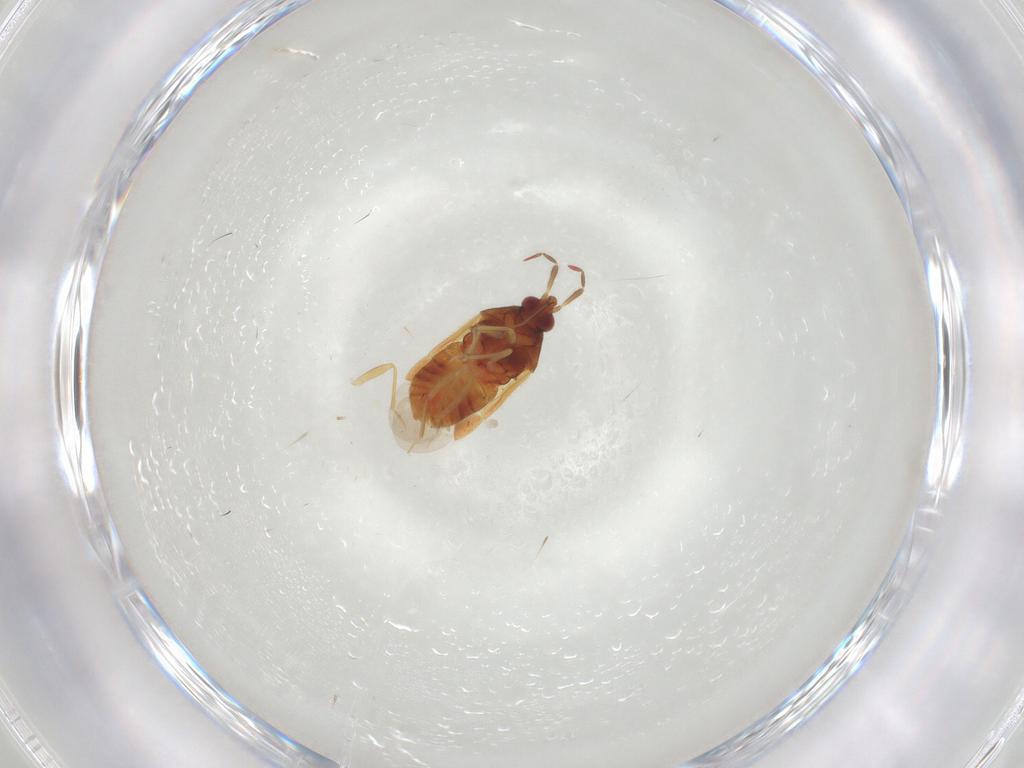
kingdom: Animalia
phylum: Arthropoda
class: Insecta
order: Hemiptera
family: Anthocoridae
